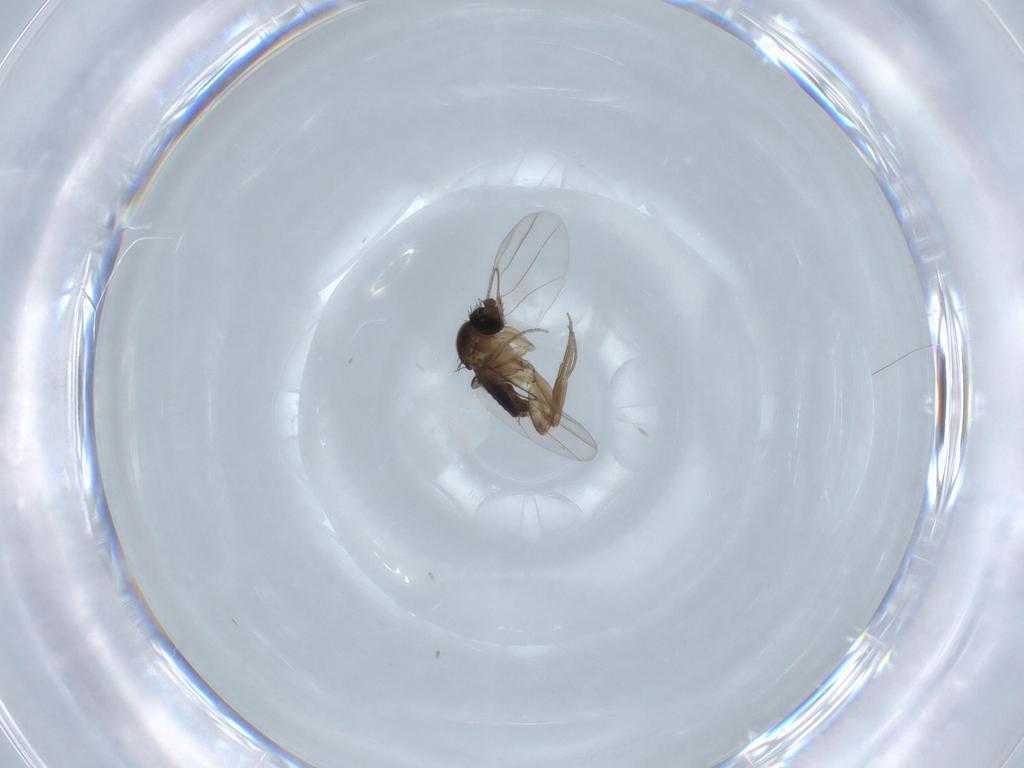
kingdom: Animalia
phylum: Arthropoda
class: Insecta
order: Diptera
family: Phoridae
